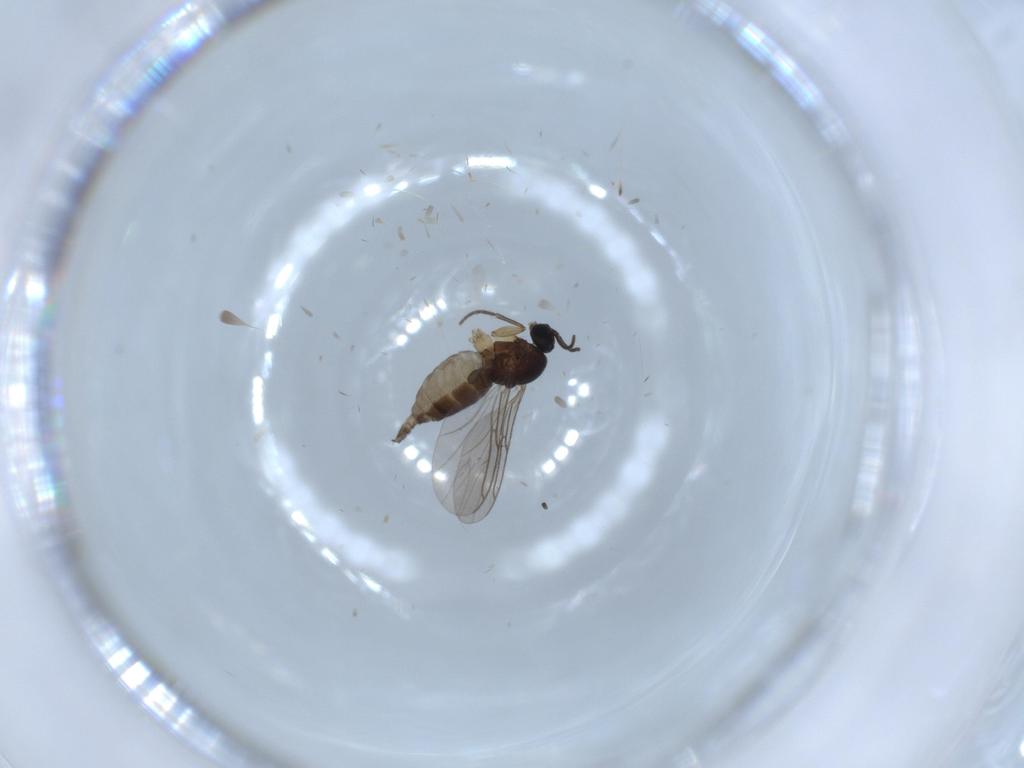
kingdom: Animalia
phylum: Arthropoda
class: Insecta
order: Diptera
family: Sciaridae
